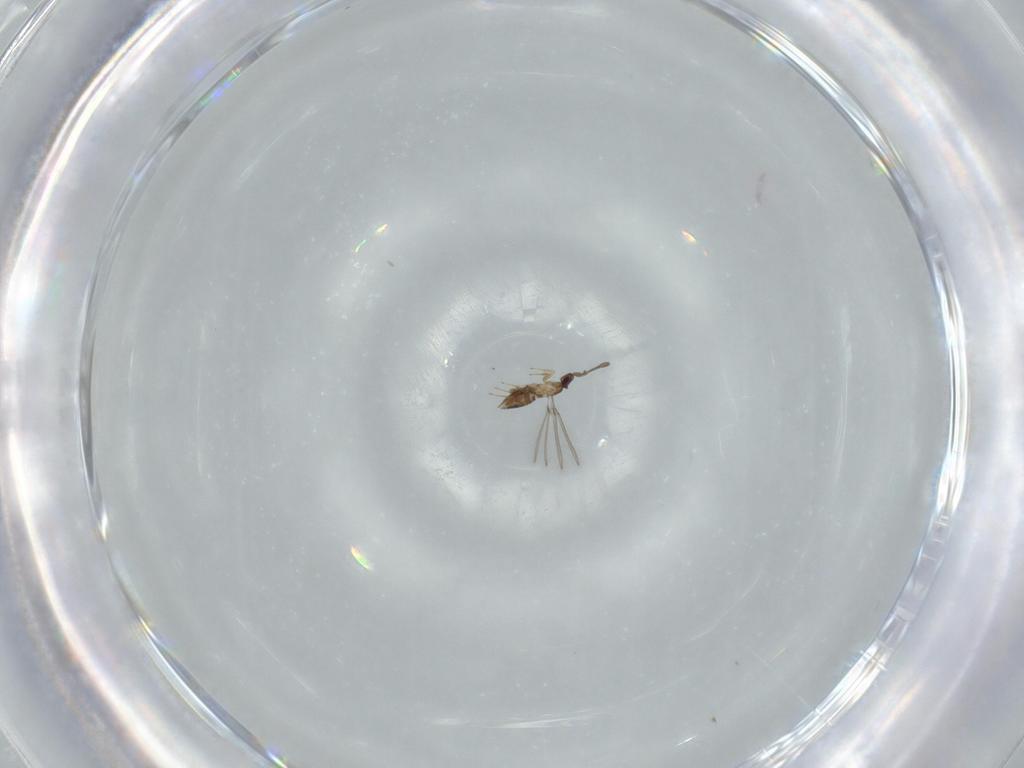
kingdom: Animalia
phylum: Arthropoda
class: Insecta
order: Hymenoptera
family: Mymaridae
